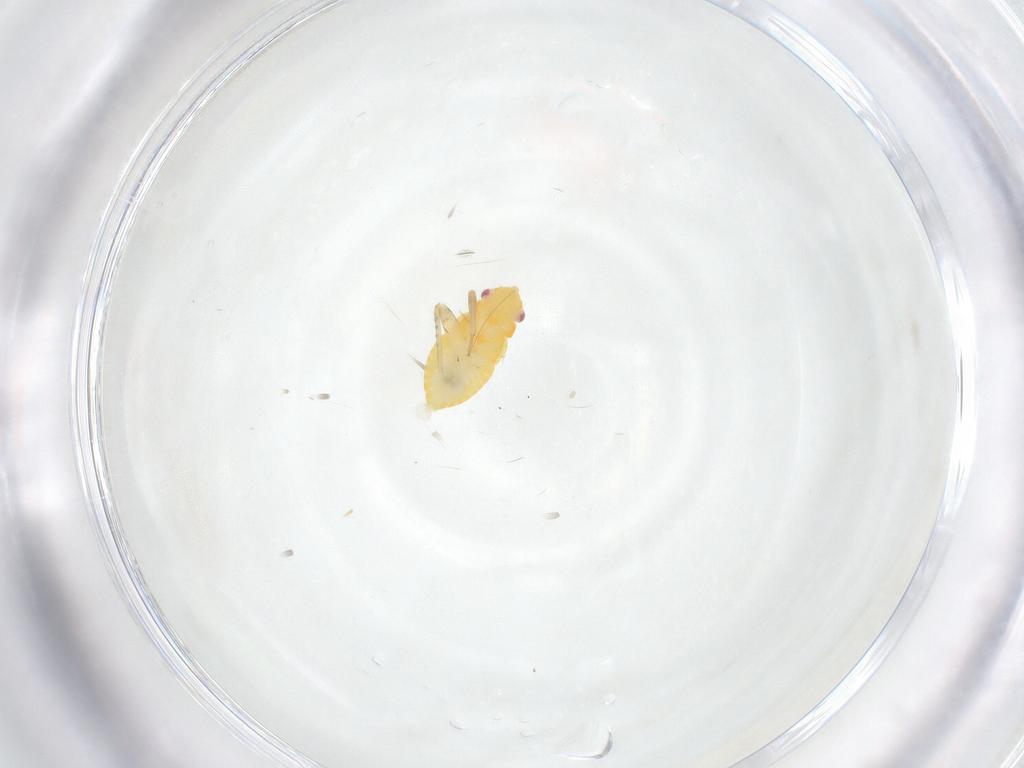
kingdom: Animalia
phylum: Arthropoda
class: Insecta
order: Hemiptera
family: Miridae
